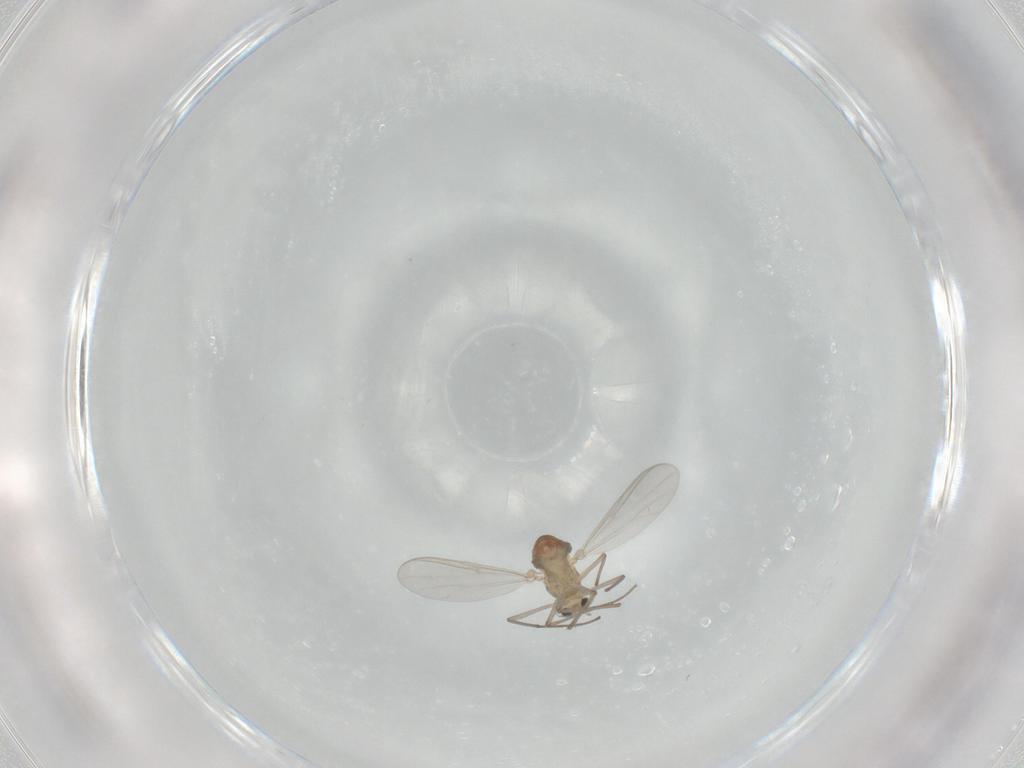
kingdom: Animalia
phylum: Arthropoda
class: Insecta
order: Diptera
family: Chironomidae
